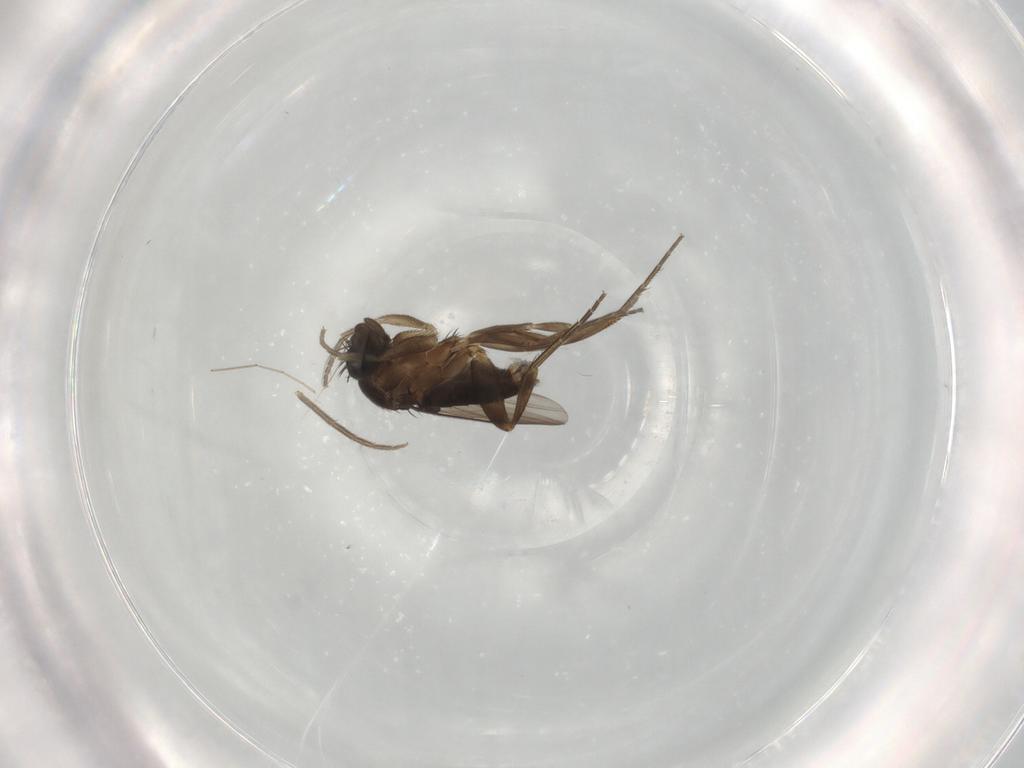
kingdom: Animalia
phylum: Arthropoda
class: Insecta
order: Diptera
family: Phoridae
